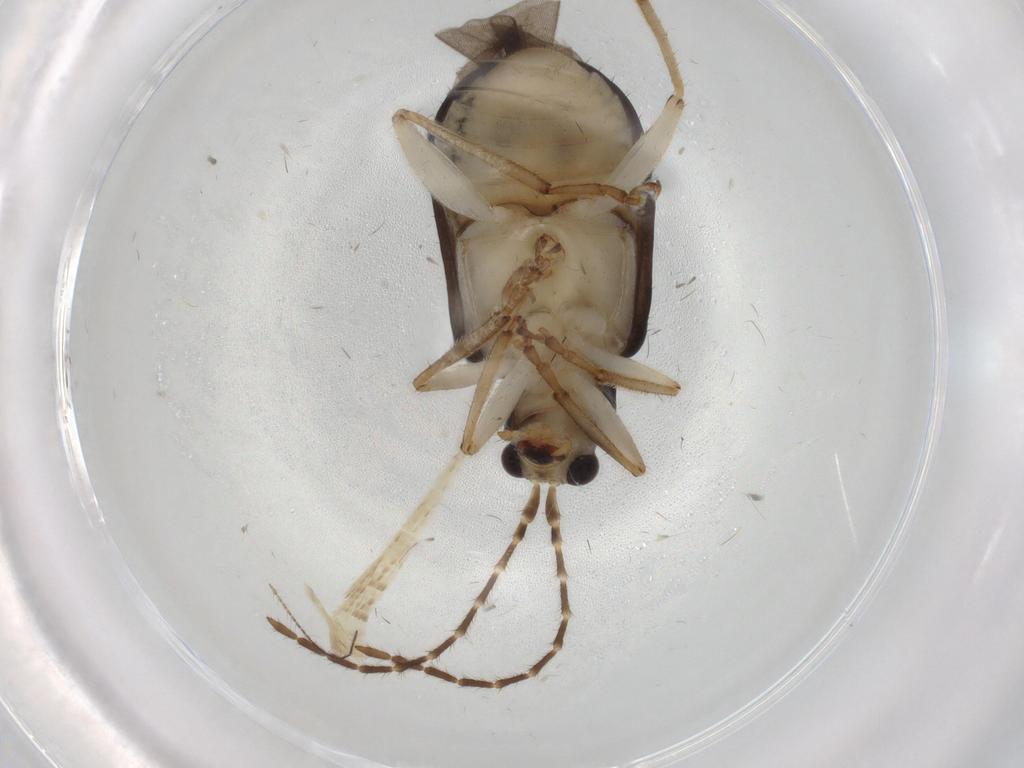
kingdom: Animalia
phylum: Arthropoda
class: Insecta
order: Coleoptera
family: Chrysomelidae
